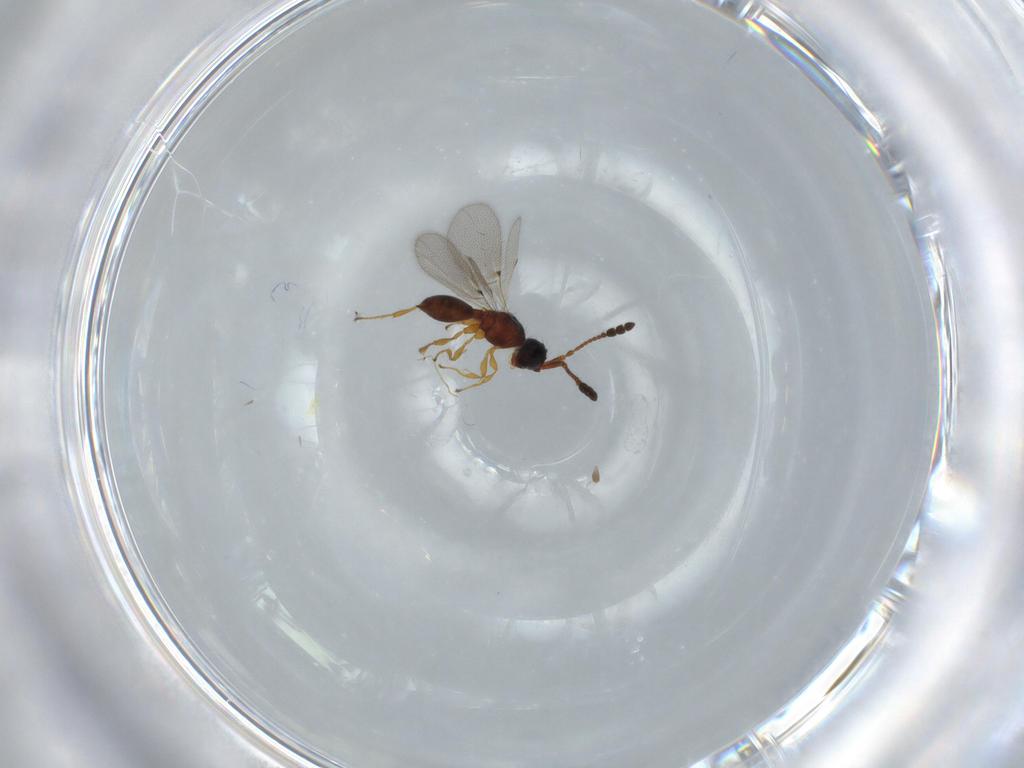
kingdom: Animalia
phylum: Arthropoda
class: Insecta
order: Hymenoptera
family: Diapriidae
